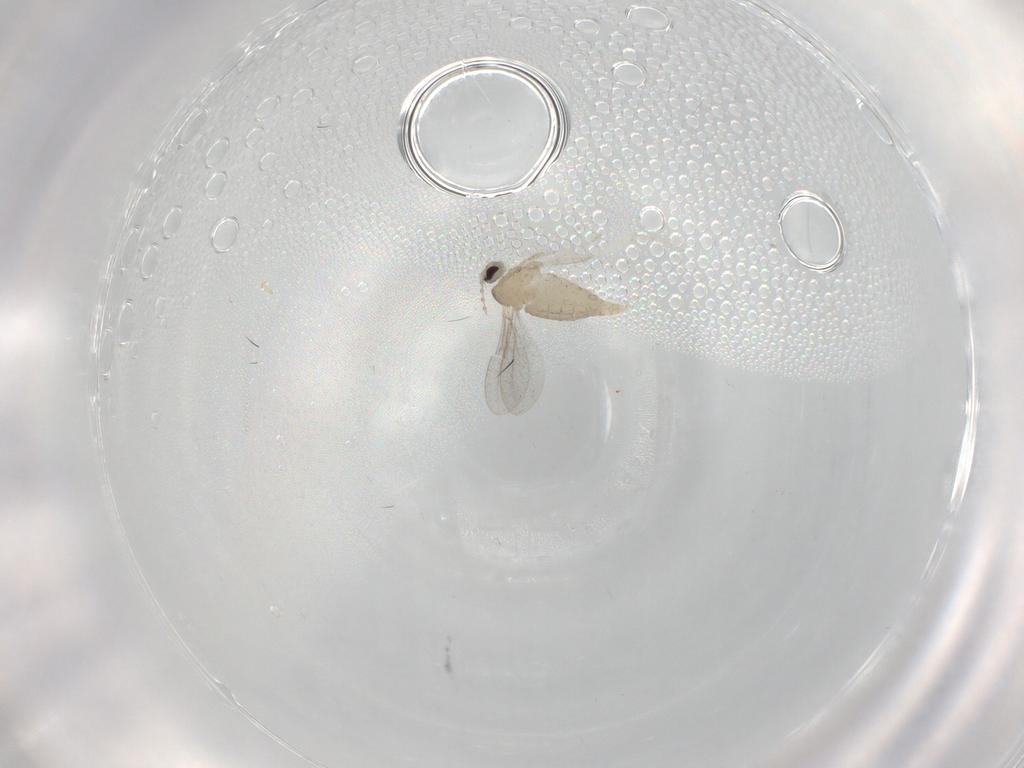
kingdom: Animalia
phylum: Arthropoda
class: Insecta
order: Diptera
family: Cecidomyiidae
